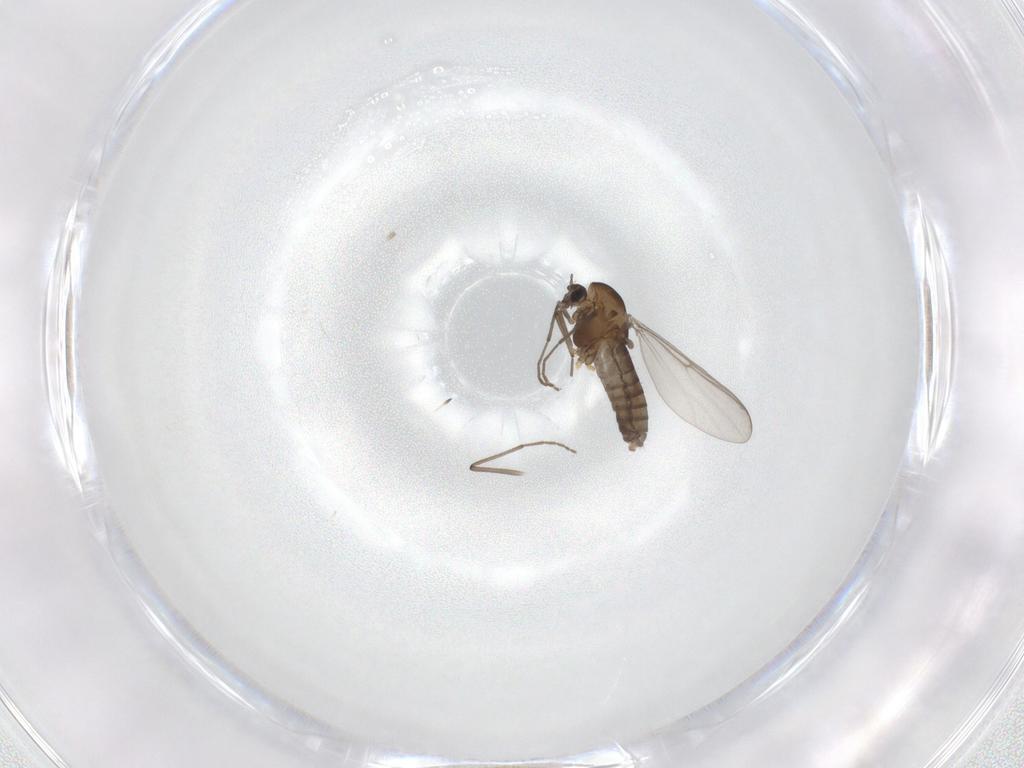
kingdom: Animalia
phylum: Arthropoda
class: Insecta
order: Diptera
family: Chironomidae
